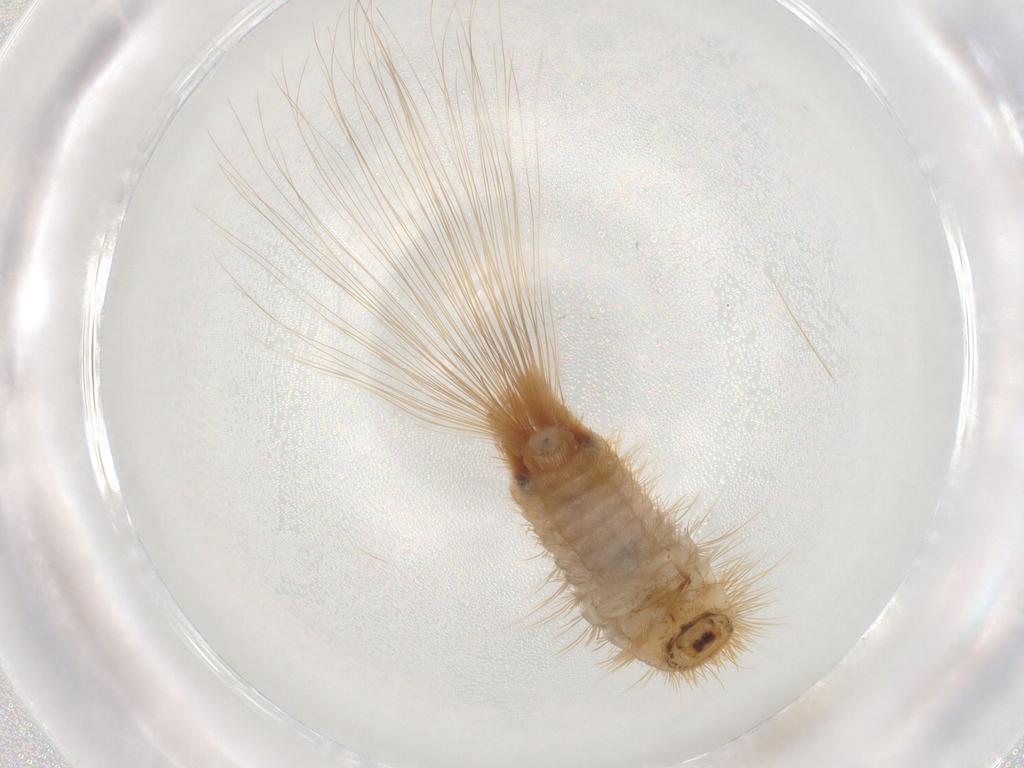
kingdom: Animalia
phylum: Arthropoda
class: Insecta
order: Coleoptera
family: Dermestidae
